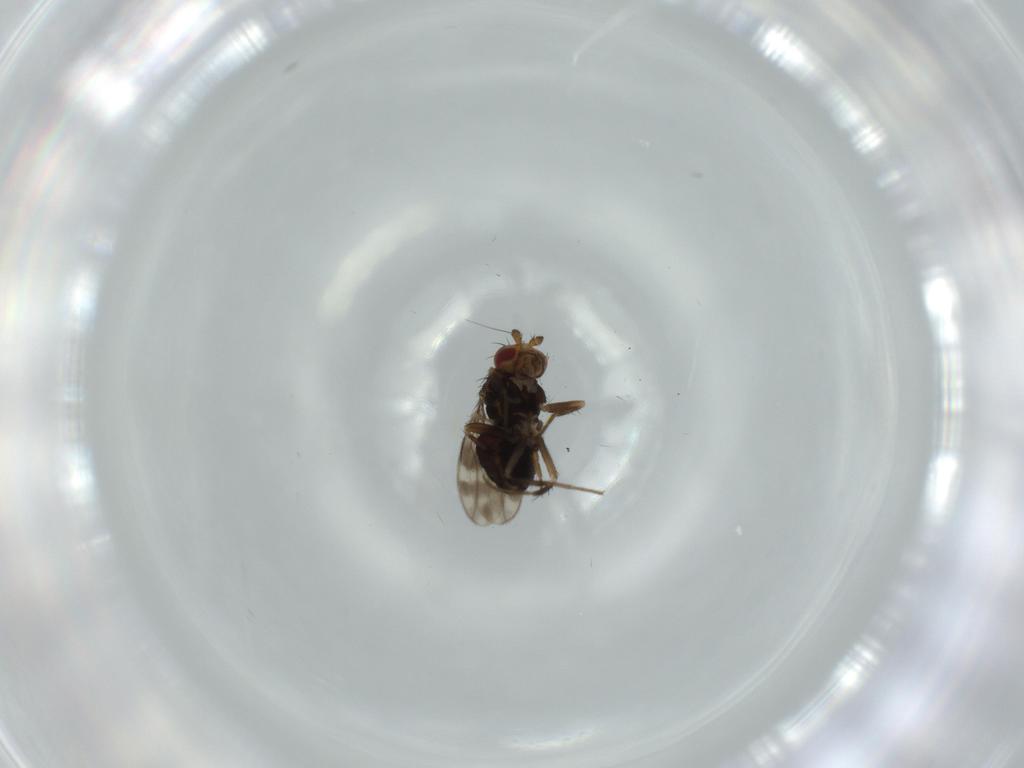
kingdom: Animalia
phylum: Arthropoda
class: Insecta
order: Diptera
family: Sphaeroceridae
